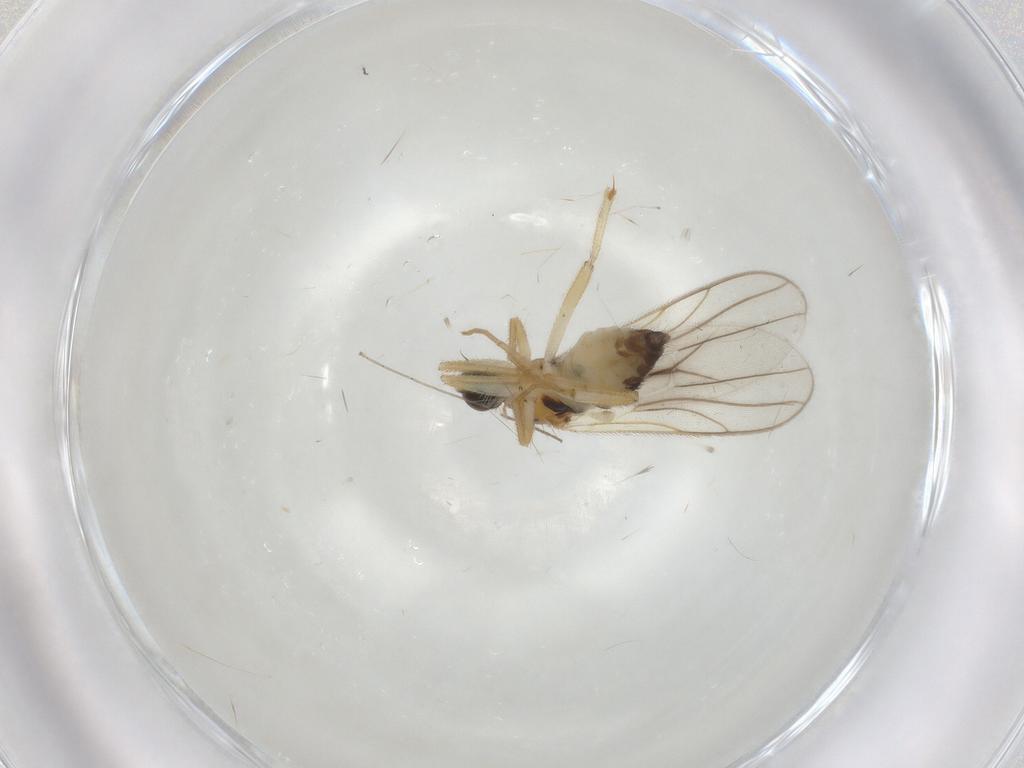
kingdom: Animalia
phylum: Arthropoda
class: Insecta
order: Diptera
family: Hybotidae
